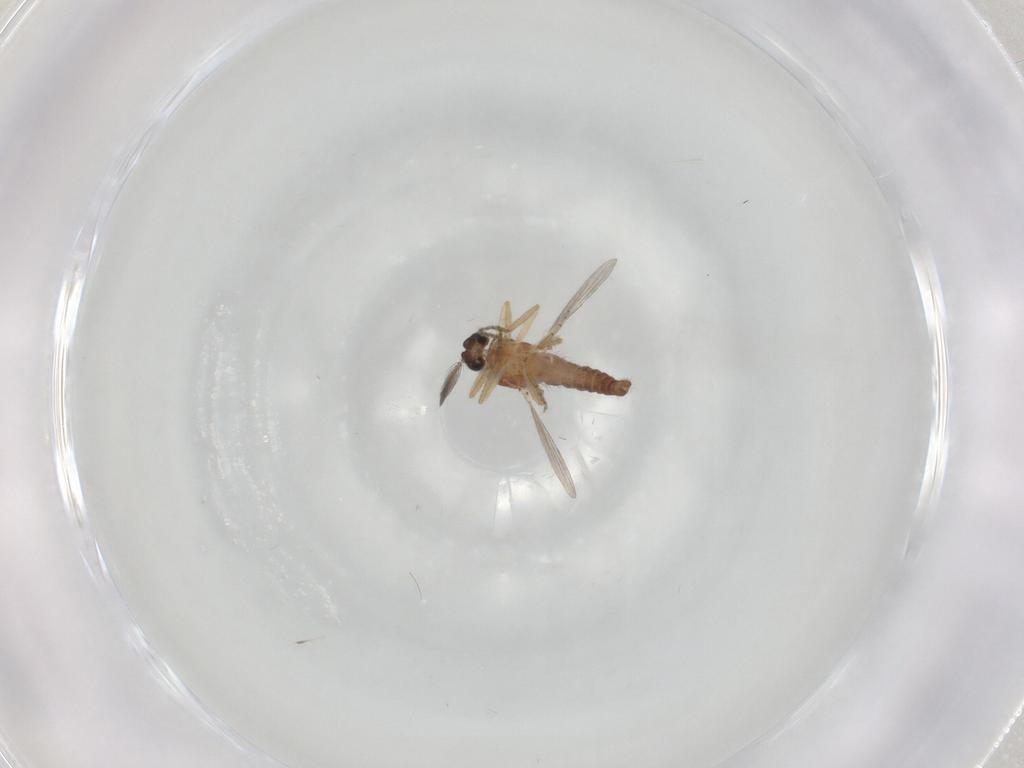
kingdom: Animalia
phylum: Arthropoda
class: Insecta
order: Diptera
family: Ceratopogonidae
